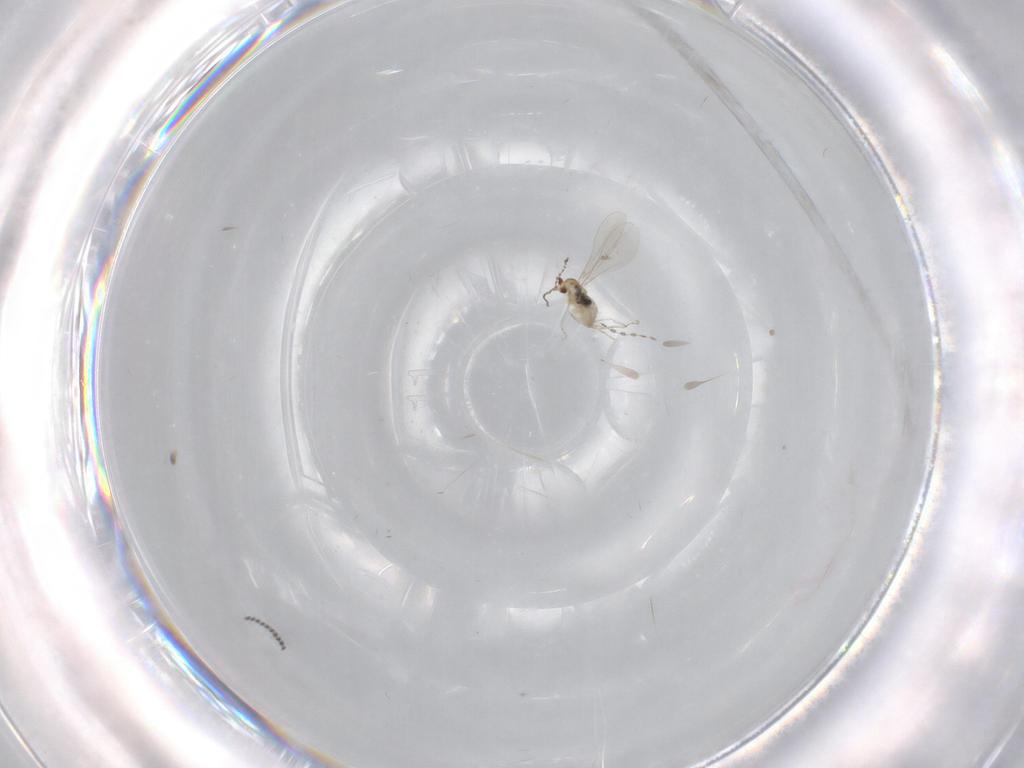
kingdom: Animalia
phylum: Arthropoda
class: Insecta
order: Diptera
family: Cecidomyiidae
